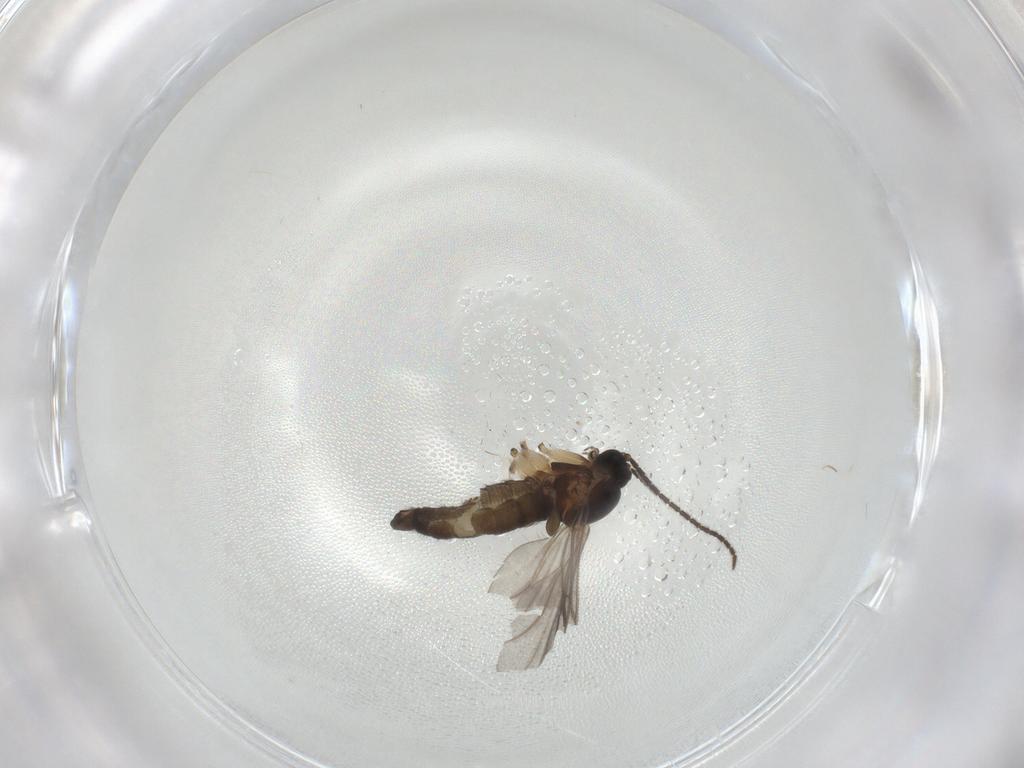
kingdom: Animalia
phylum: Arthropoda
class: Insecta
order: Diptera
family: Sciaridae
